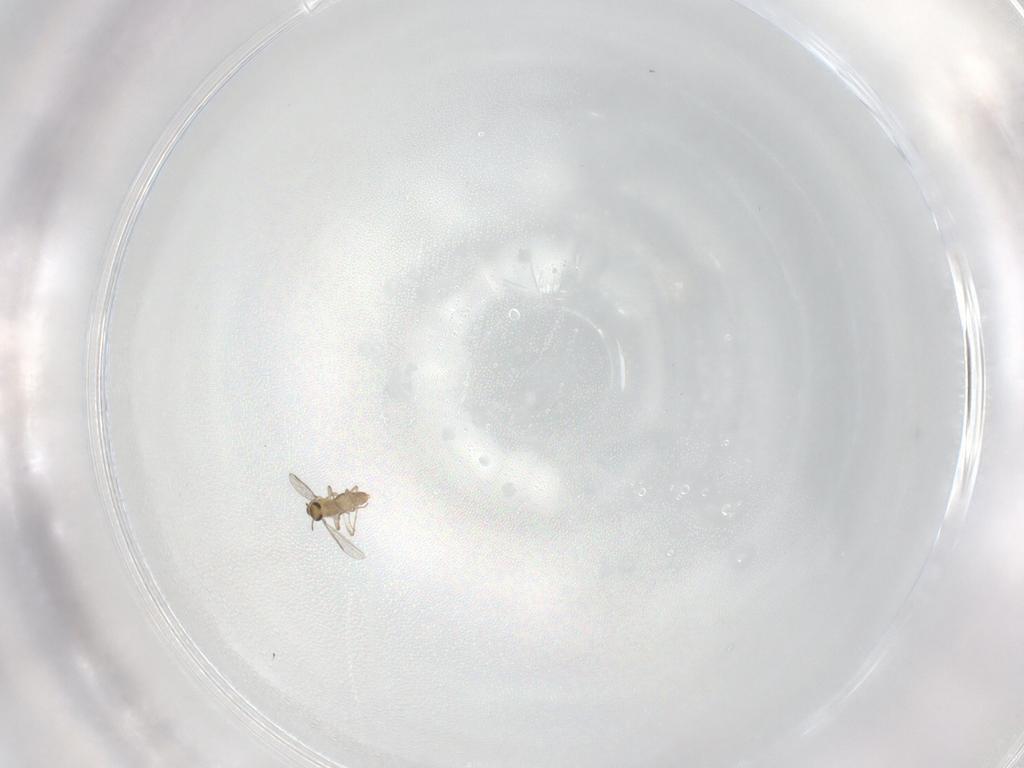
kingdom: Animalia
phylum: Arthropoda
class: Insecta
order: Diptera
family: Chironomidae
